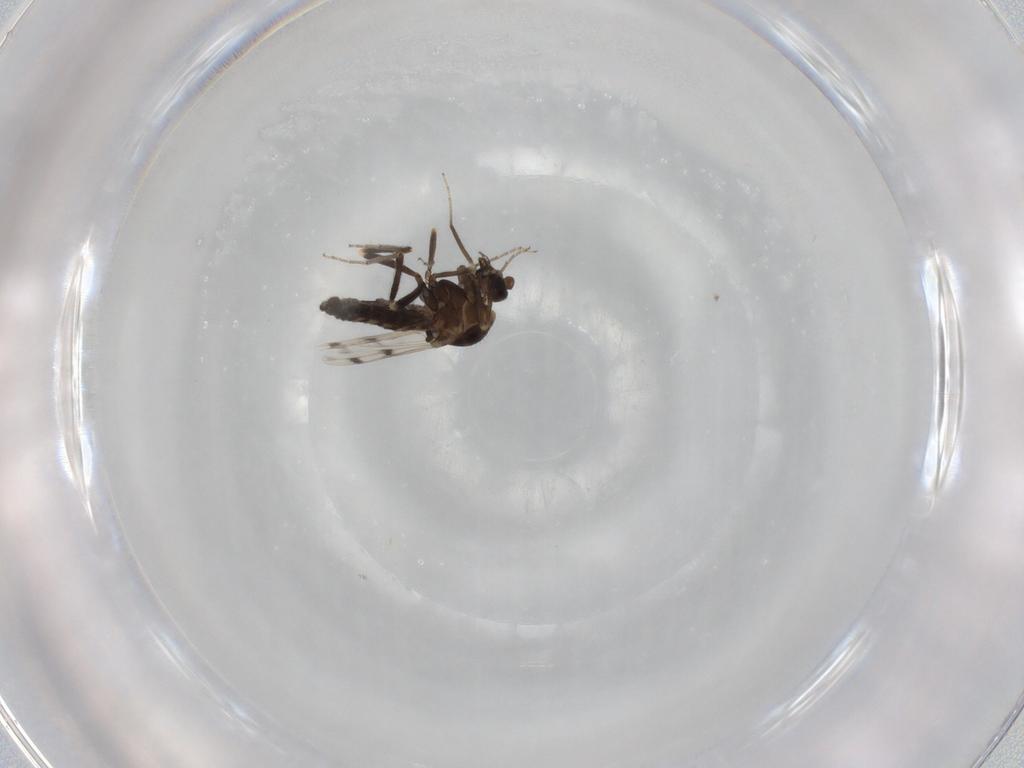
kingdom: Animalia
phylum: Arthropoda
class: Insecta
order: Diptera
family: Ceratopogonidae
